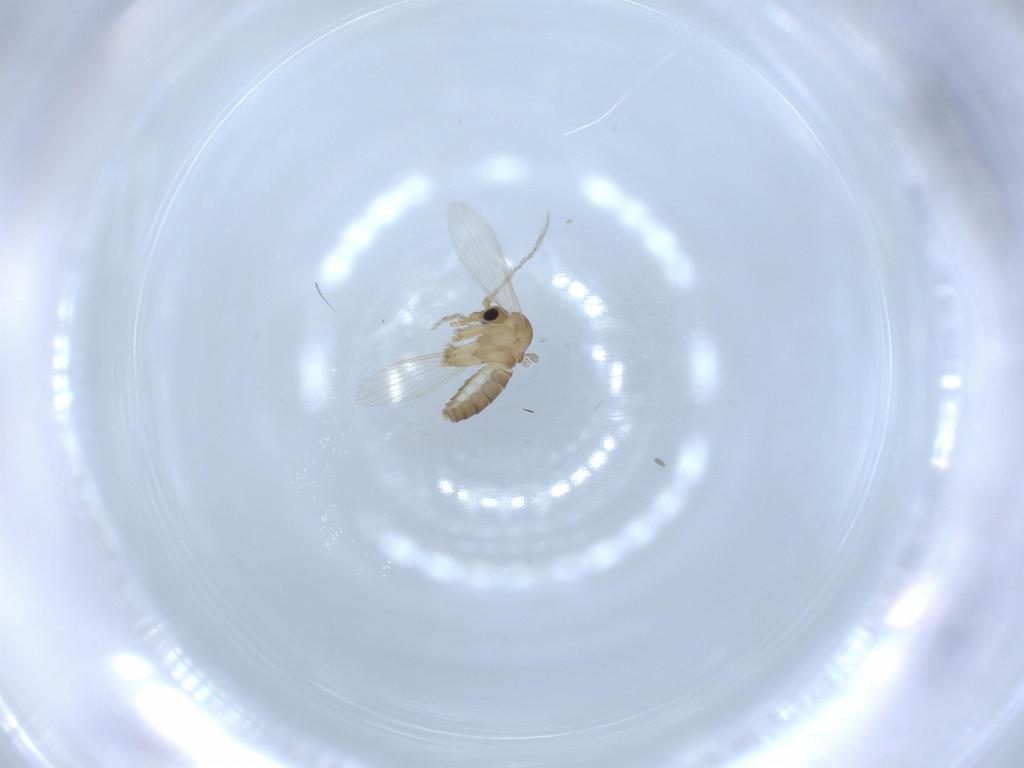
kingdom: Animalia
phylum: Arthropoda
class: Insecta
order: Diptera
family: Psychodidae
